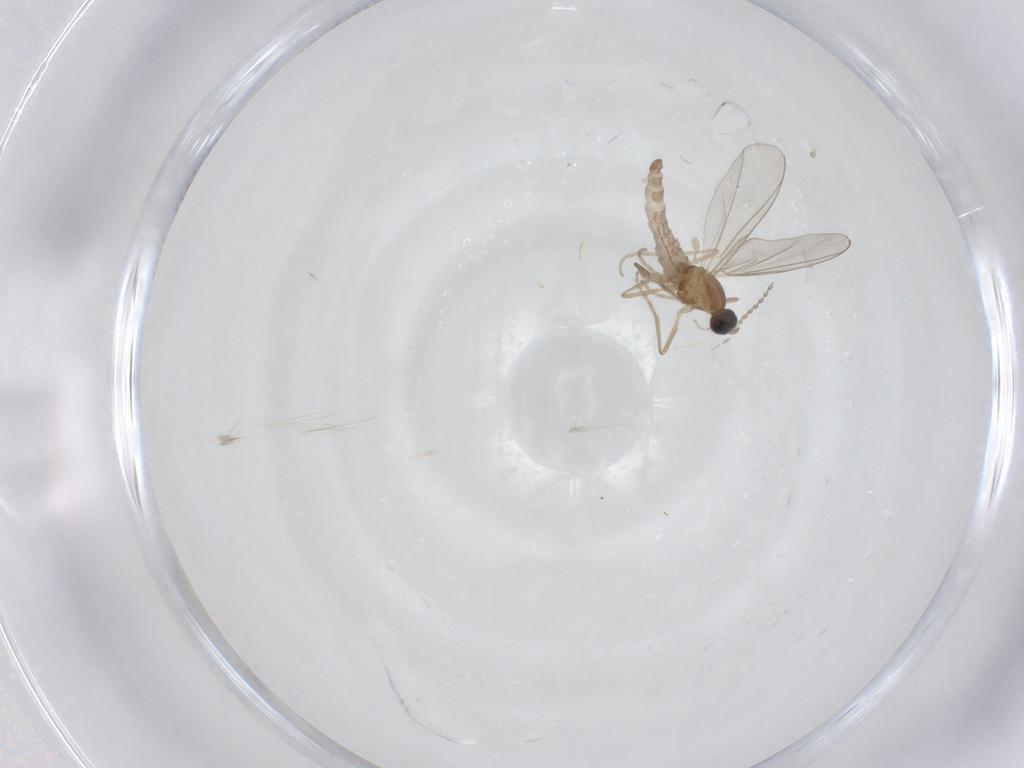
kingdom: Animalia
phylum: Arthropoda
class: Insecta
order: Diptera
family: Cecidomyiidae
